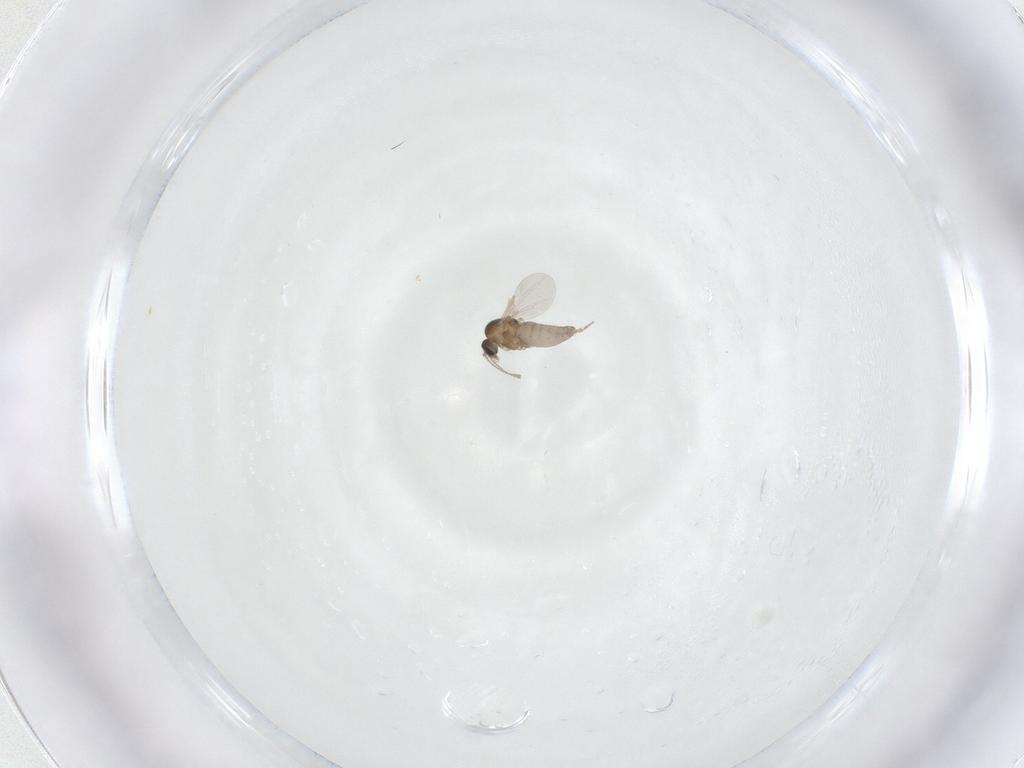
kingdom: Animalia
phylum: Arthropoda
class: Insecta
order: Diptera
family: Ceratopogonidae
